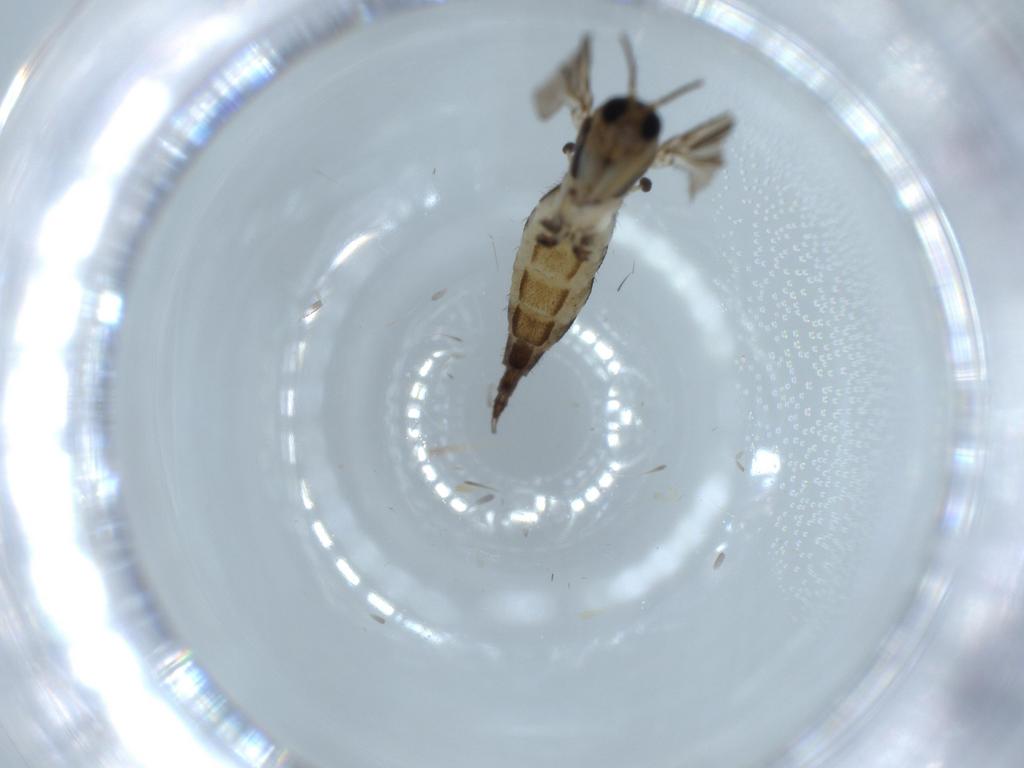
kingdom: Animalia
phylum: Arthropoda
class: Insecta
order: Diptera
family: Sciaridae
